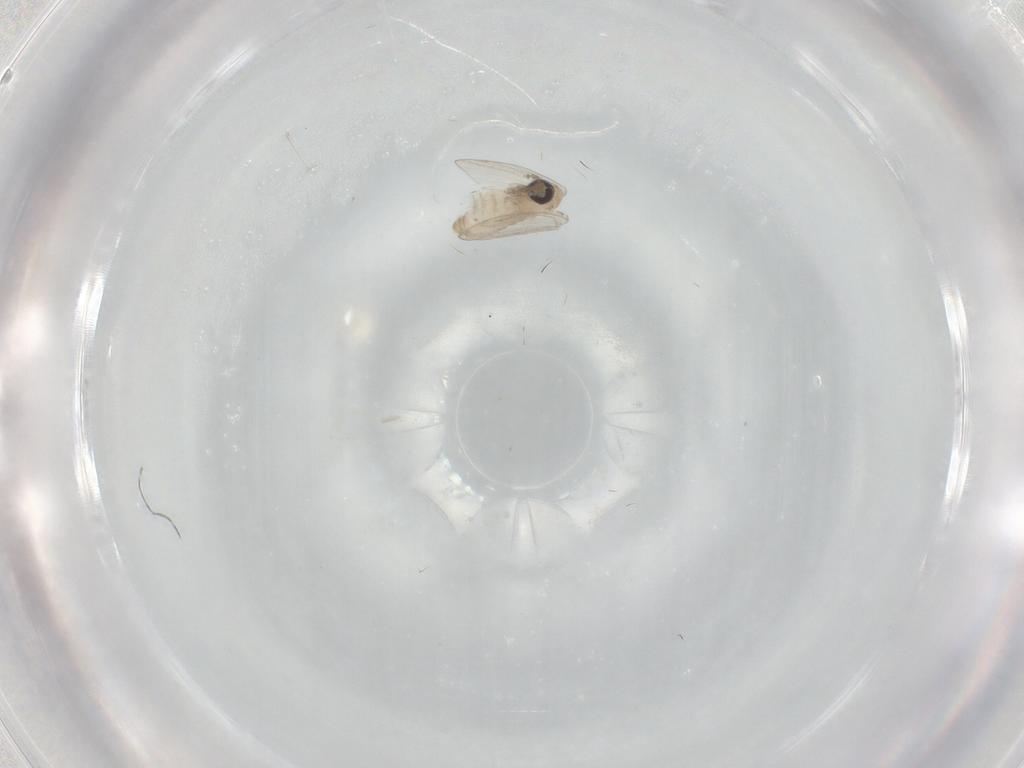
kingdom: Animalia
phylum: Arthropoda
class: Insecta
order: Diptera
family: Psychodidae
